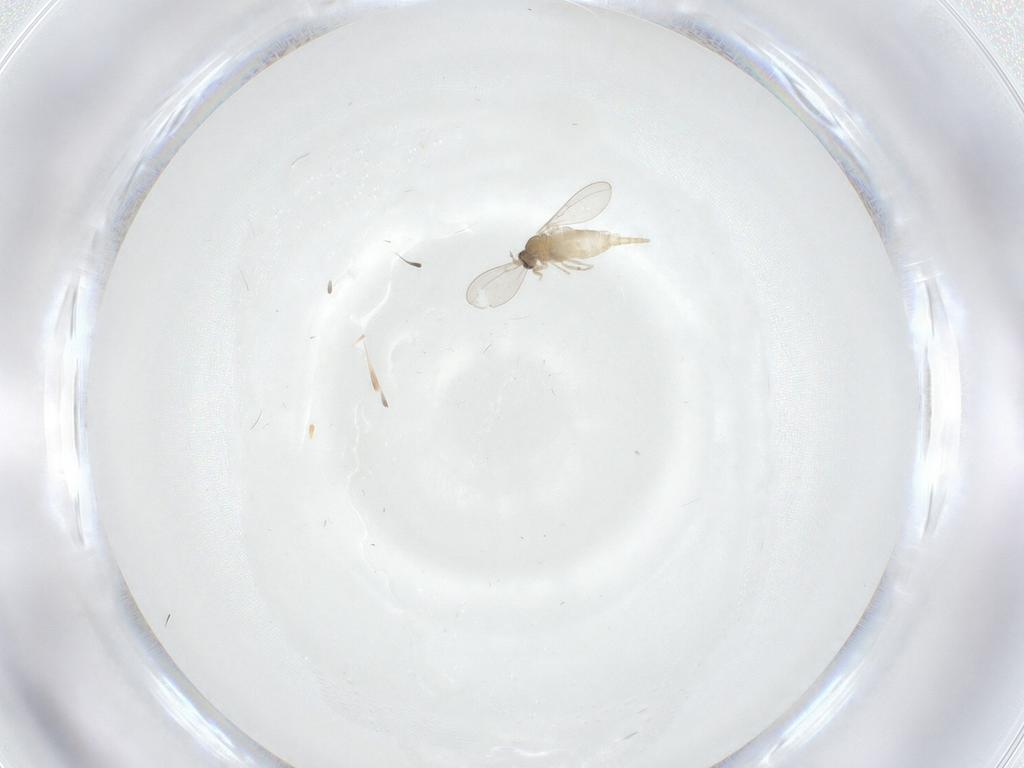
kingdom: Animalia
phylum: Arthropoda
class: Insecta
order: Diptera
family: Cecidomyiidae
